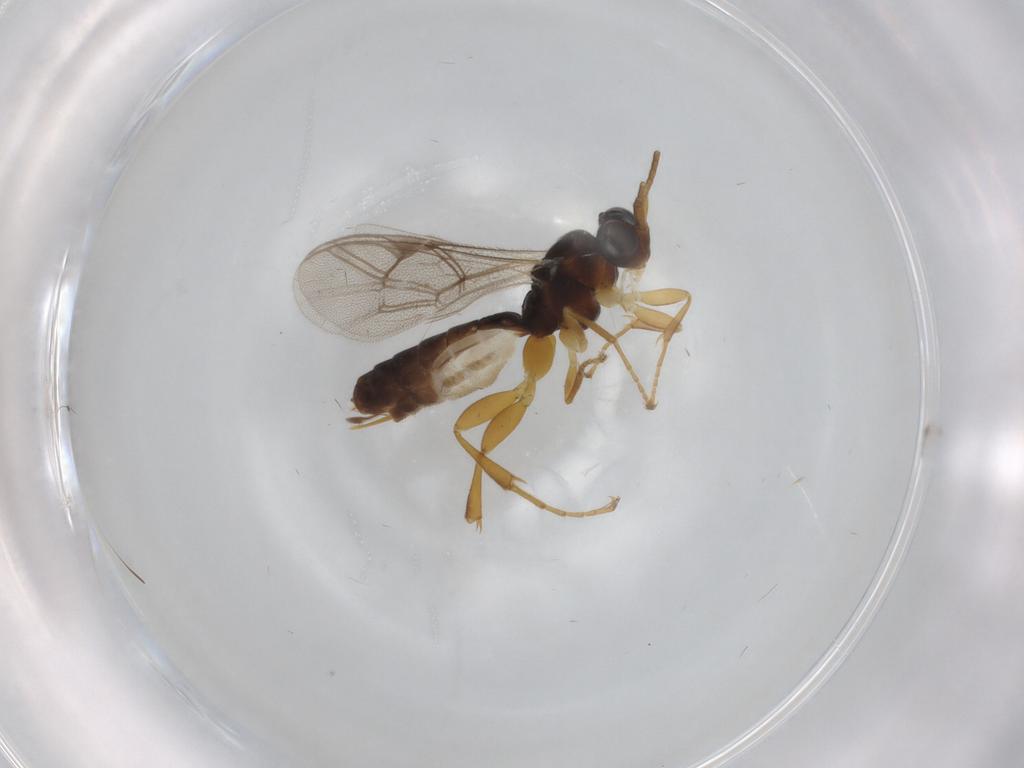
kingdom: Animalia
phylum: Arthropoda
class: Insecta
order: Hymenoptera
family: Ichneumonidae
